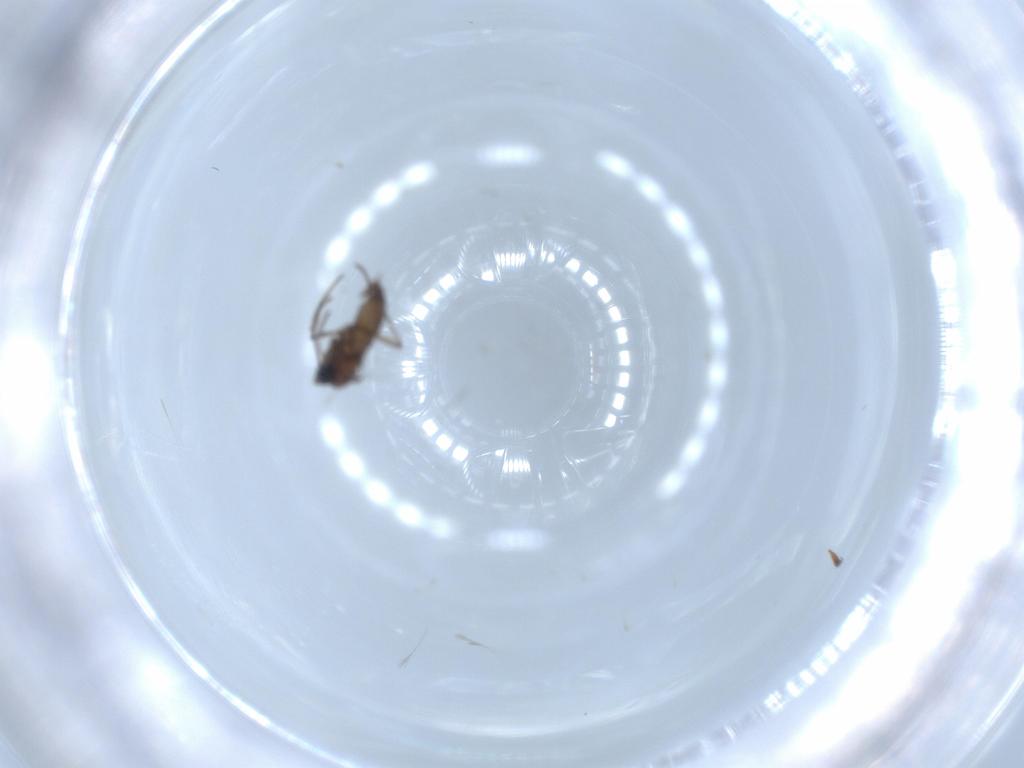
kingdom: Animalia
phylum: Arthropoda
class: Insecta
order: Diptera
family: Sciaridae
